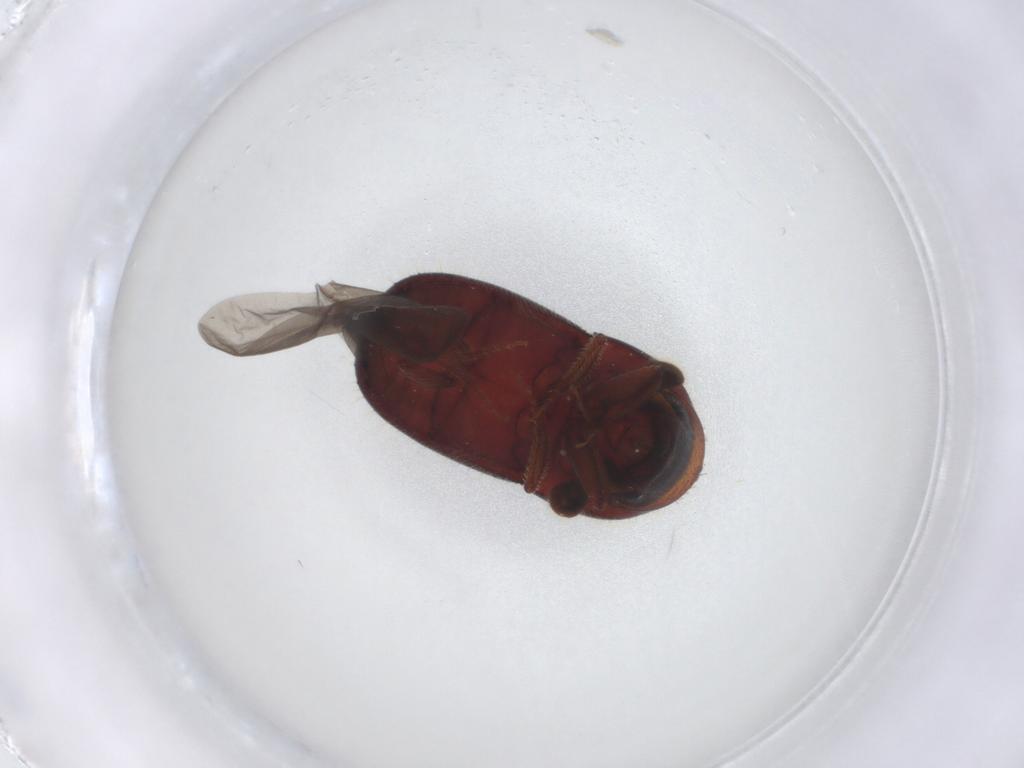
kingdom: Animalia
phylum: Arthropoda
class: Insecta
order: Coleoptera
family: Curculionidae
